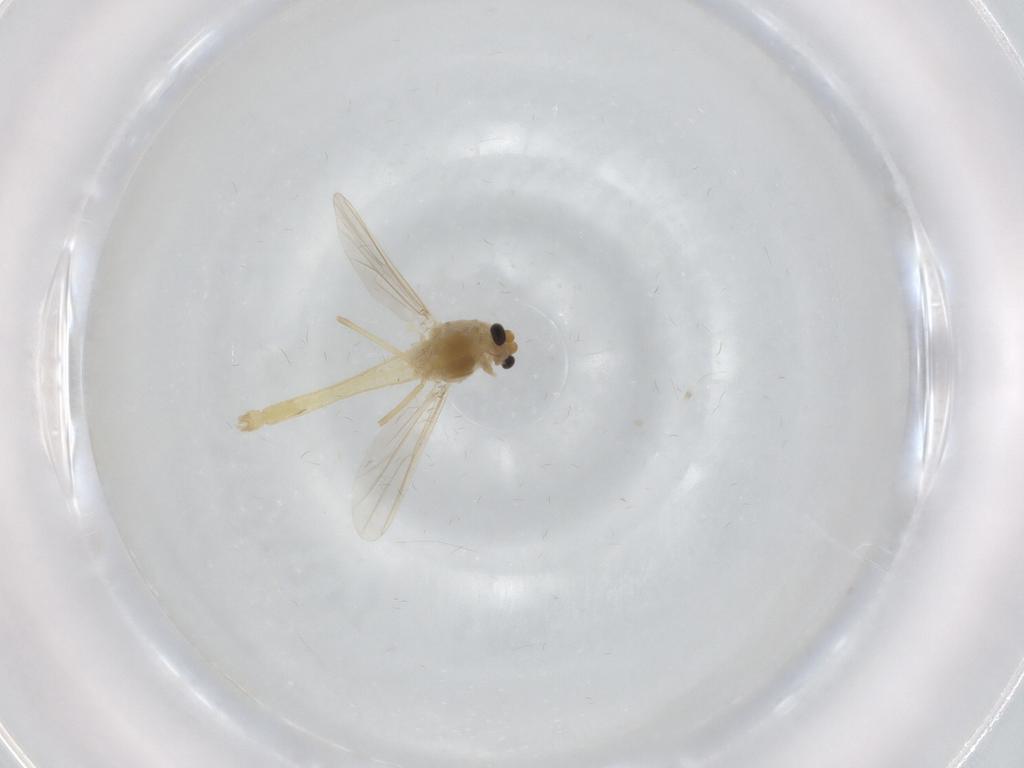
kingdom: Animalia
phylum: Arthropoda
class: Insecta
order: Diptera
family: Chironomidae
